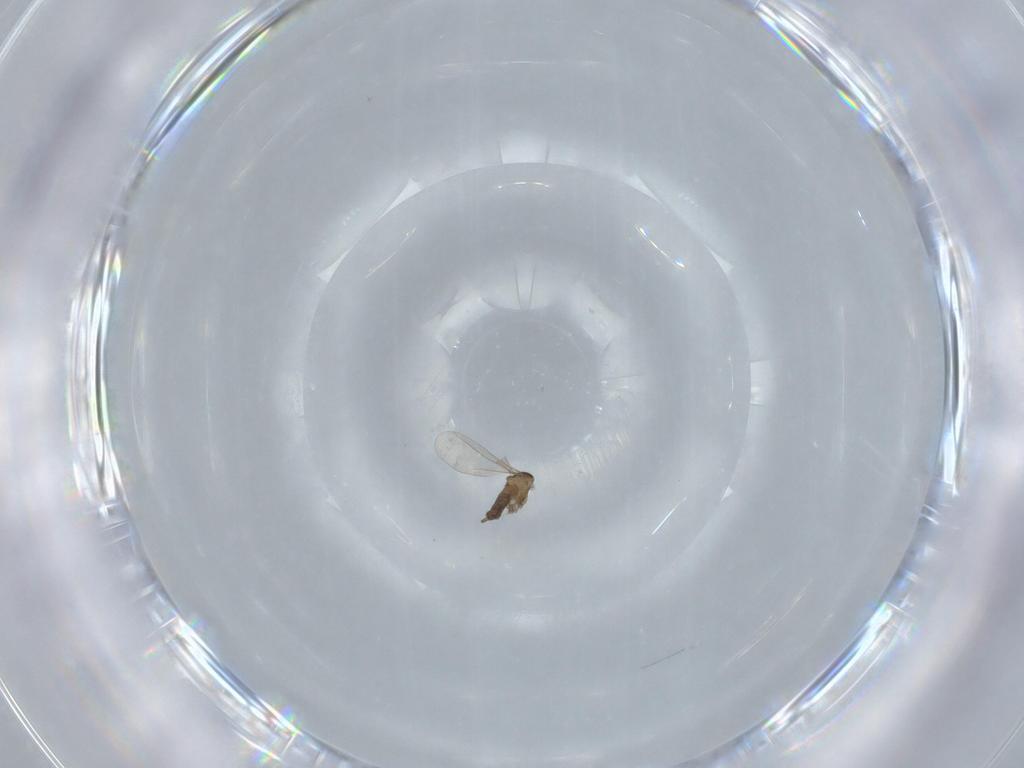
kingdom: Animalia
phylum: Arthropoda
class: Insecta
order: Diptera
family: Cecidomyiidae
